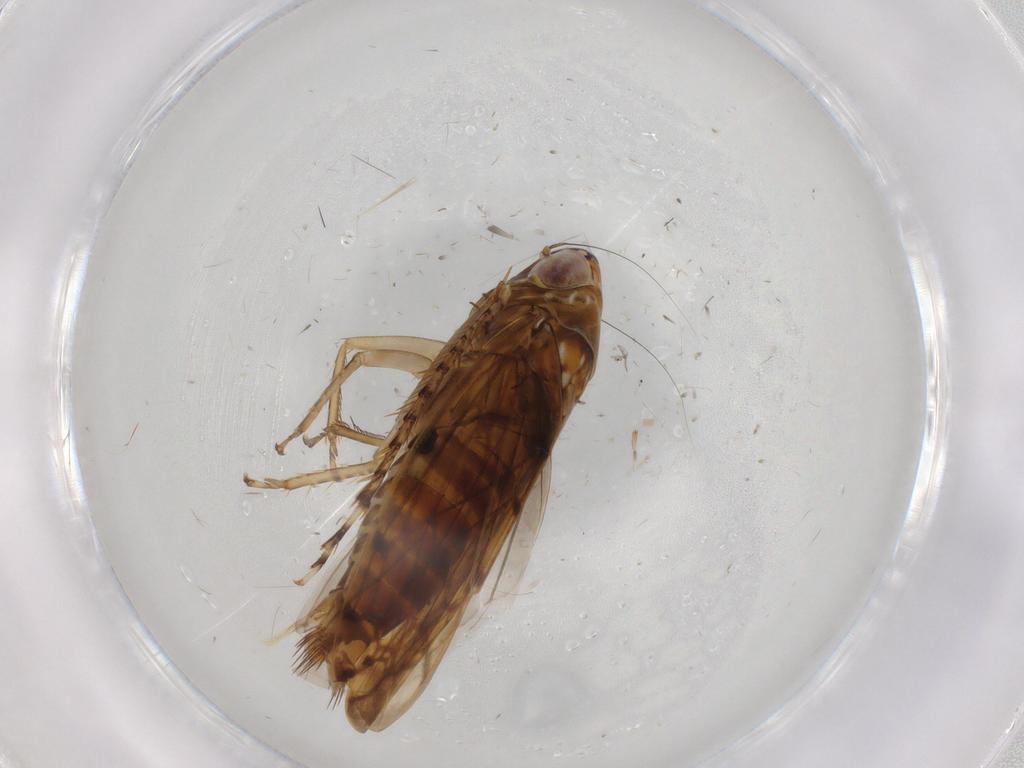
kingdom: Animalia
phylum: Arthropoda
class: Insecta
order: Hemiptera
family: Cicadellidae
